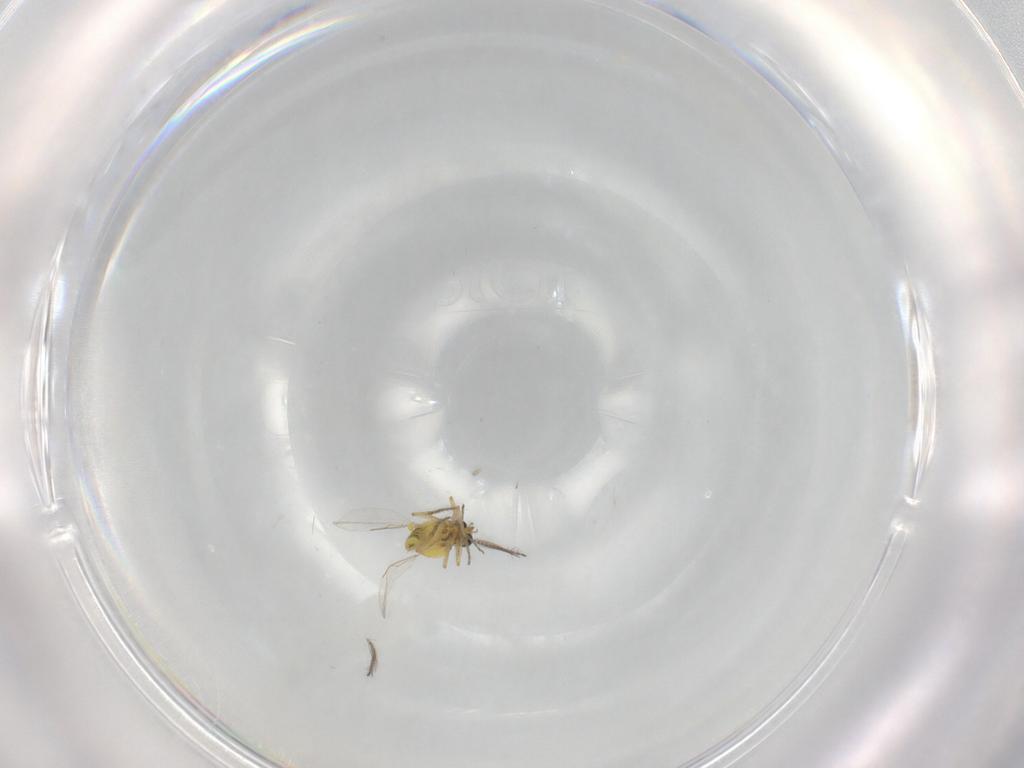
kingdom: Animalia
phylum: Arthropoda
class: Insecta
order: Diptera
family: Ceratopogonidae
